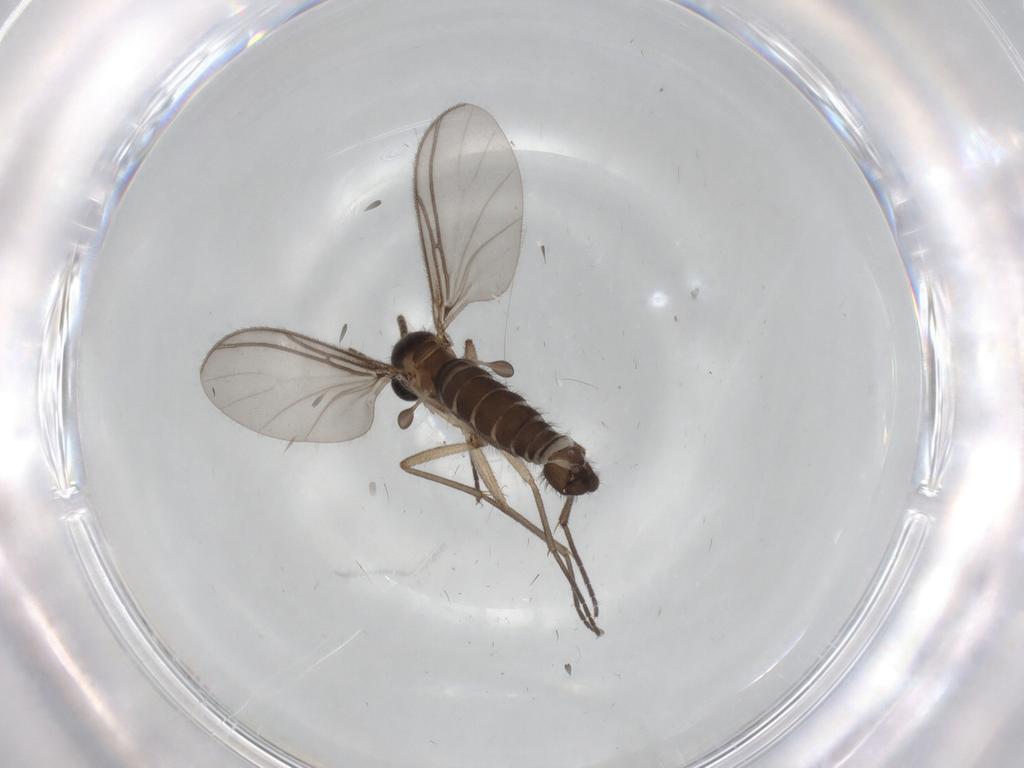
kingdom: Animalia
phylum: Arthropoda
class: Insecta
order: Diptera
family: Sciaridae
